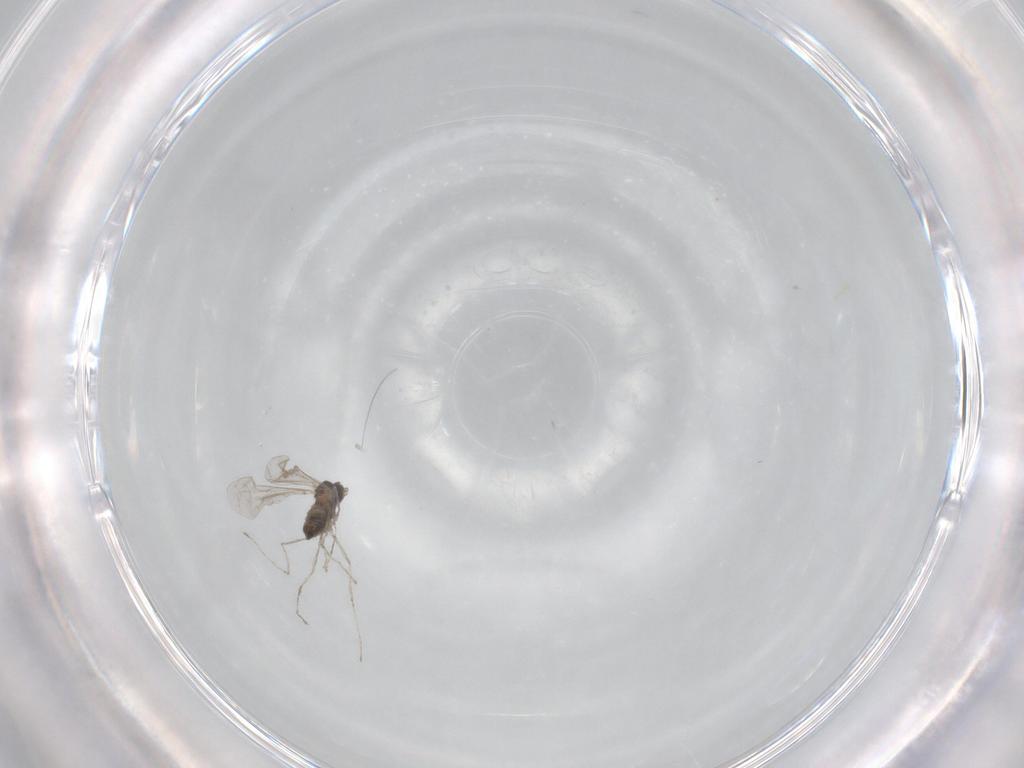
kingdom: Animalia
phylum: Arthropoda
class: Insecta
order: Diptera
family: Cecidomyiidae
